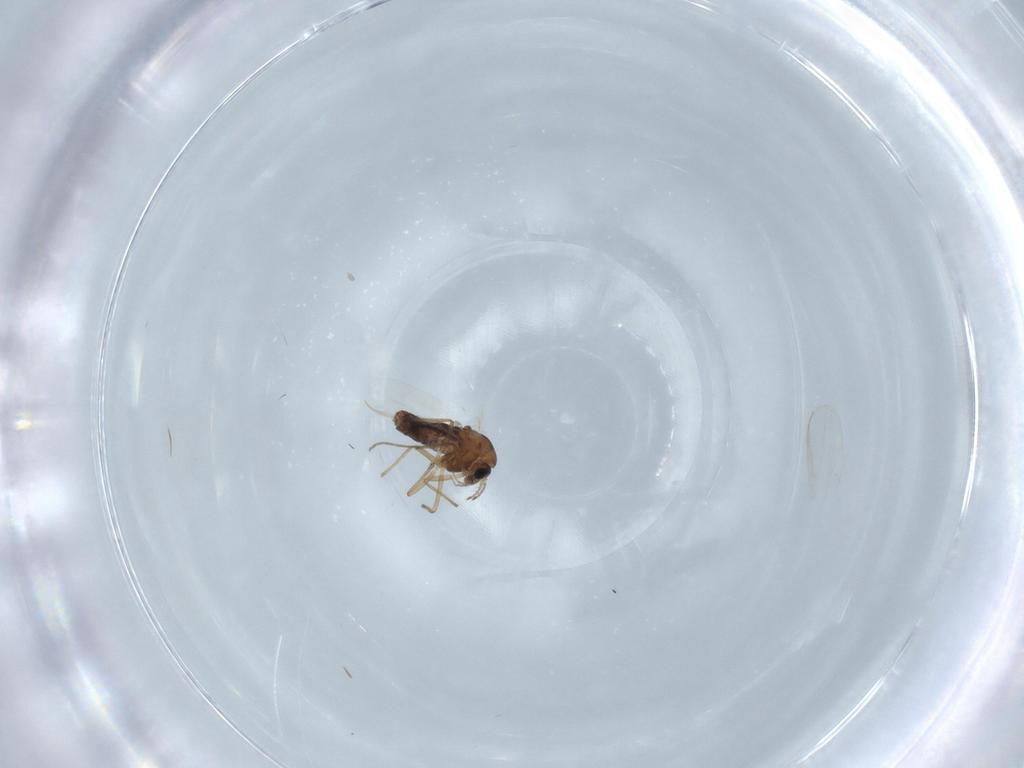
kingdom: Animalia
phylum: Arthropoda
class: Insecta
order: Diptera
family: Chironomidae
